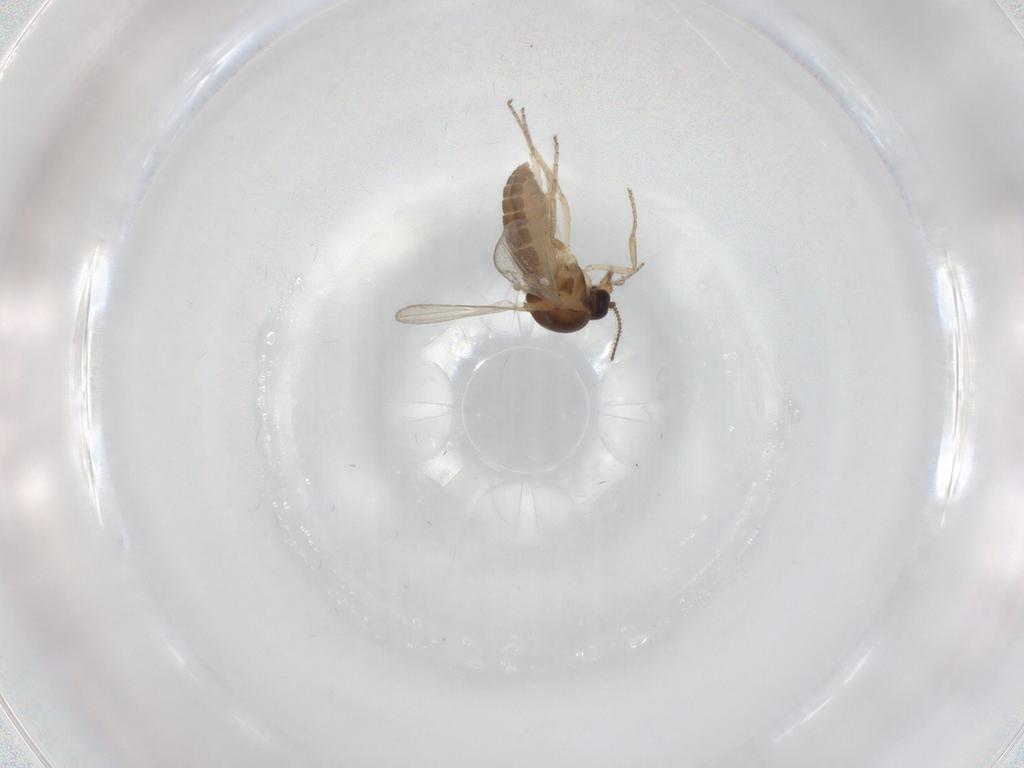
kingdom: Animalia
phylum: Arthropoda
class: Insecta
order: Diptera
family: Ceratopogonidae
